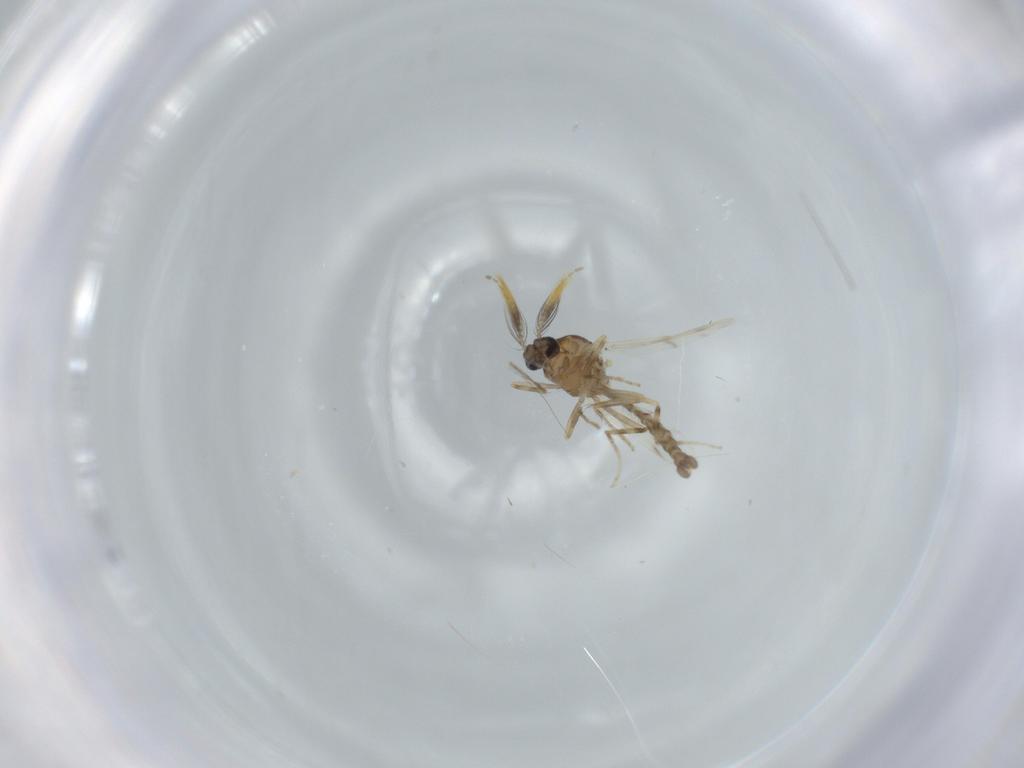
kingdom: Animalia
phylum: Arthropoda
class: Insecta
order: Diptera
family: Ceratopogonidae
